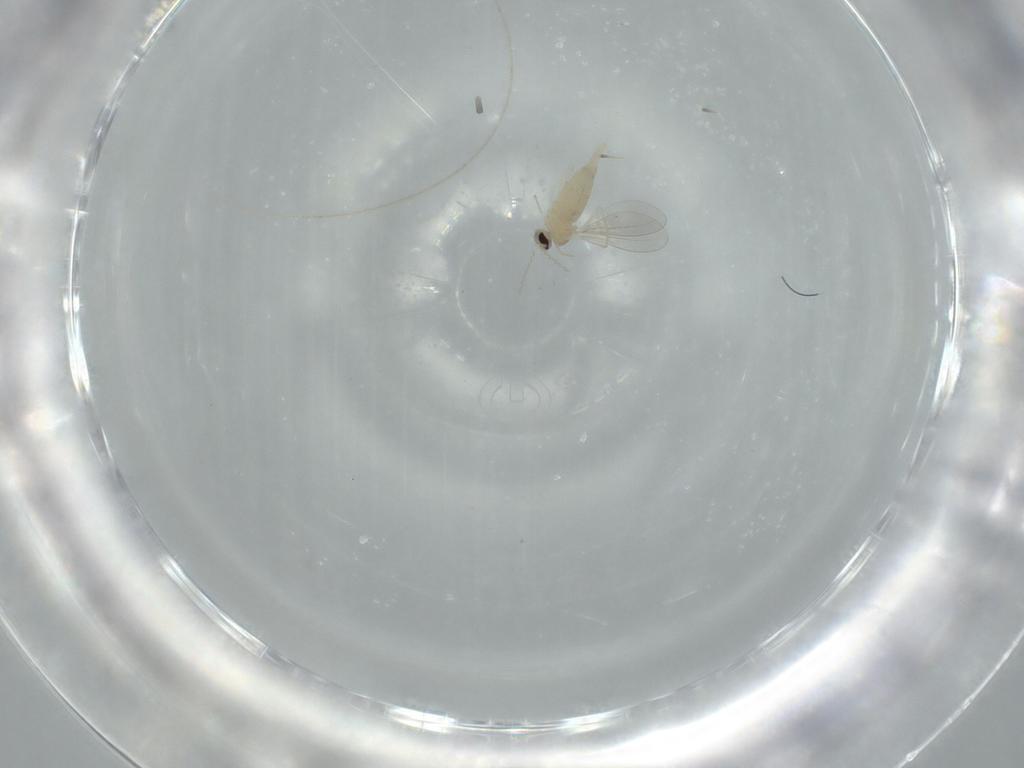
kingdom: Animalia
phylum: Arthropoda
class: Insecta
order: Diptera
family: Cecidomyiidae
